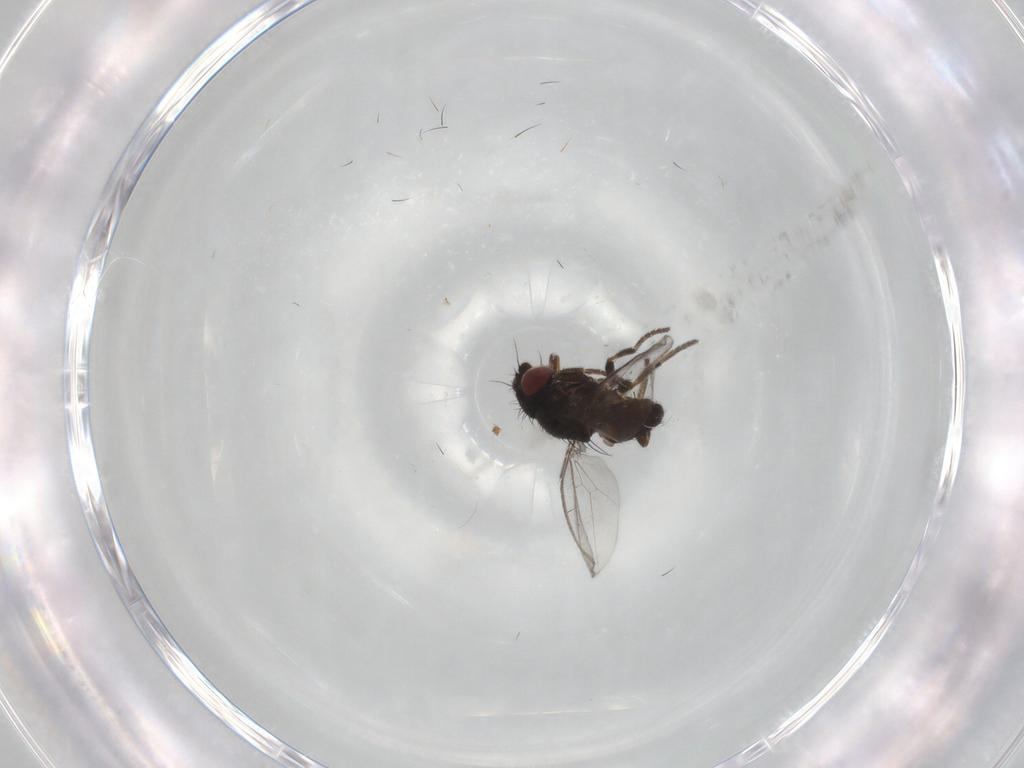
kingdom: Animalia
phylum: Arthropoda
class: Insecta
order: Diptera
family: Milichiidae
